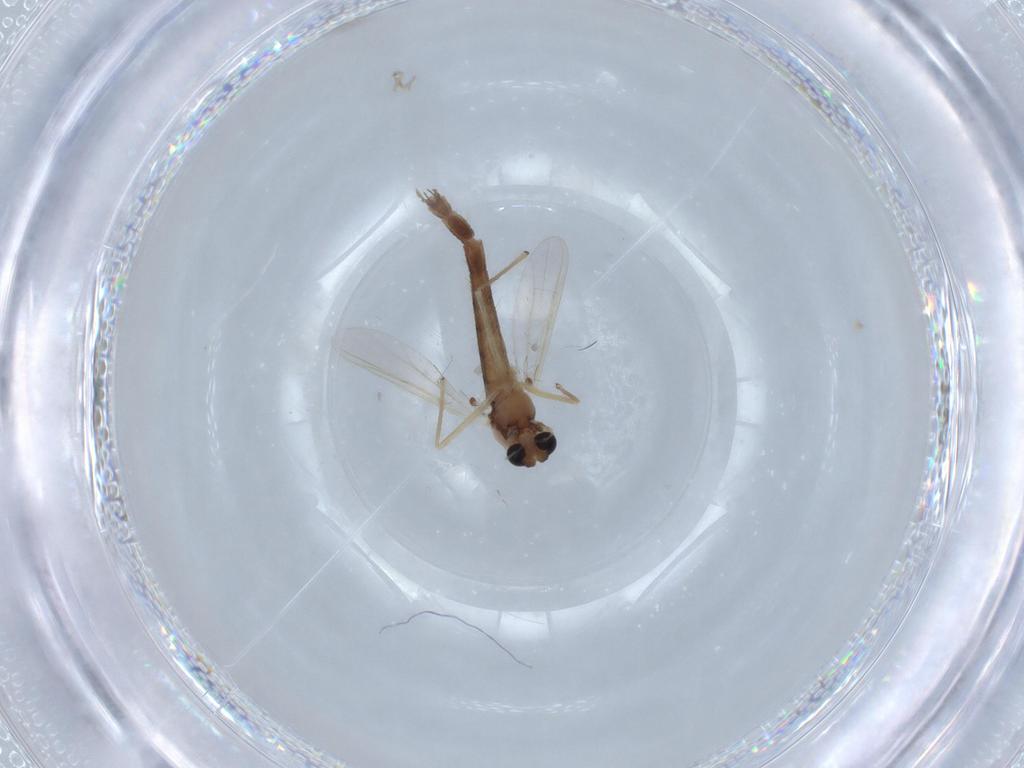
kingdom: Animalia
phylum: Arthropoda
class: Insecta
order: Diptera
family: Chironomidae
